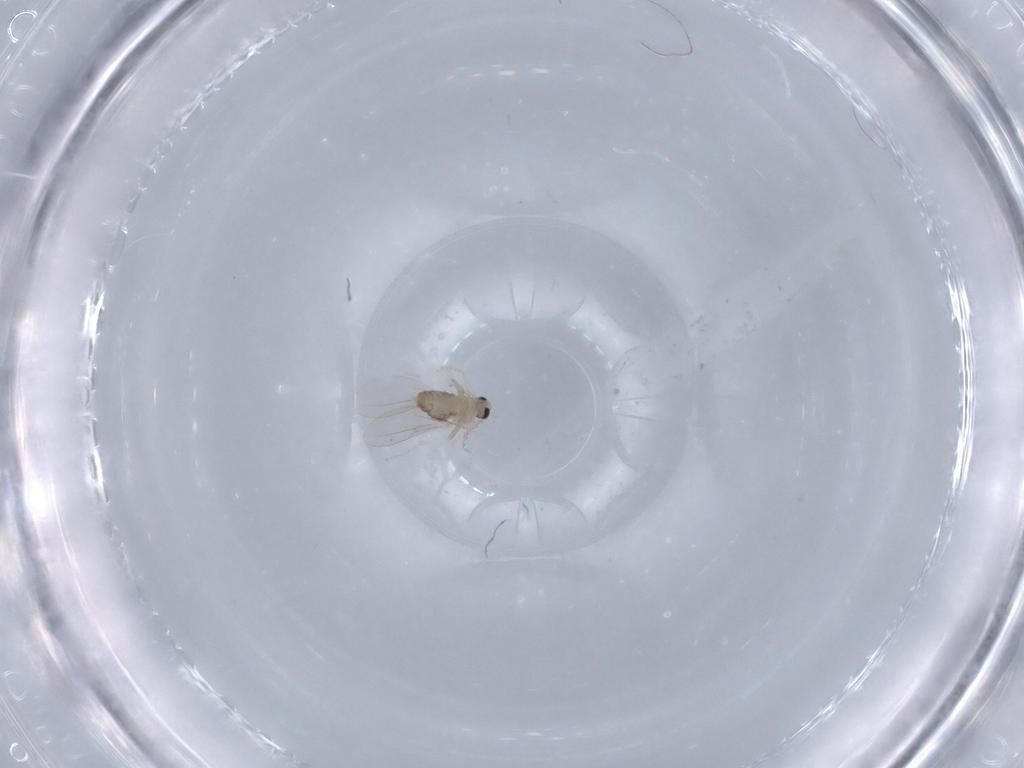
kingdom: Animalia
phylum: Arthropoda
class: Insecta
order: Diptera
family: Cecidomyiidae
